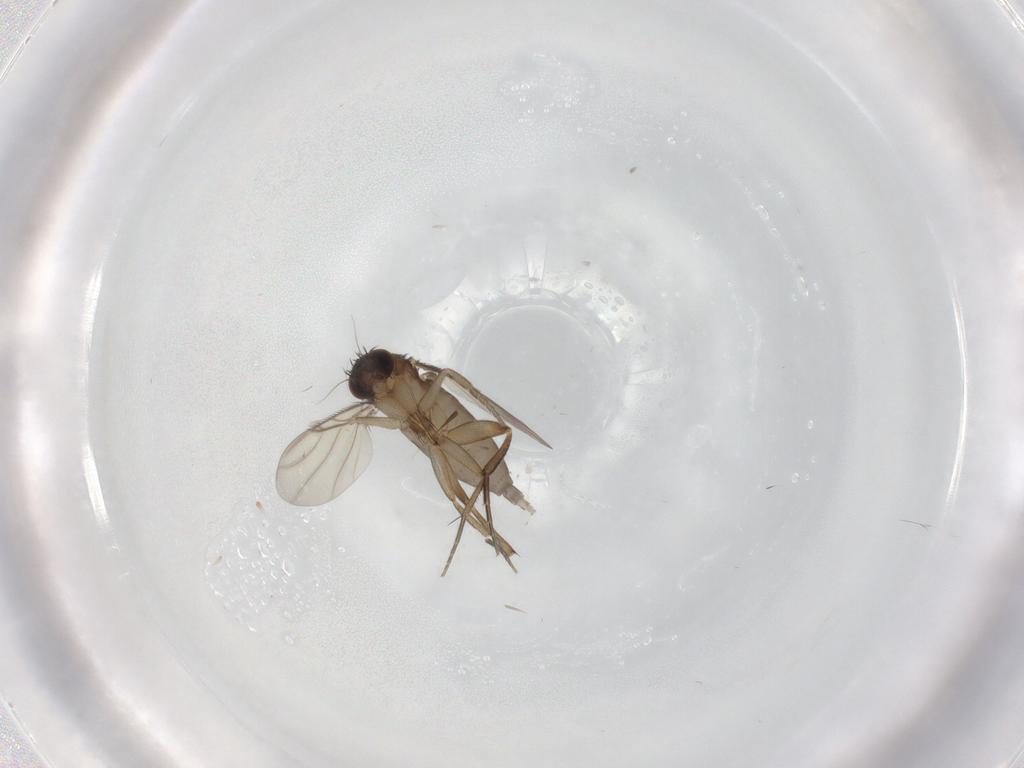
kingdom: Animalia
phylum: Arthropoda
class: Insecta
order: Diptera
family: Phoridae
